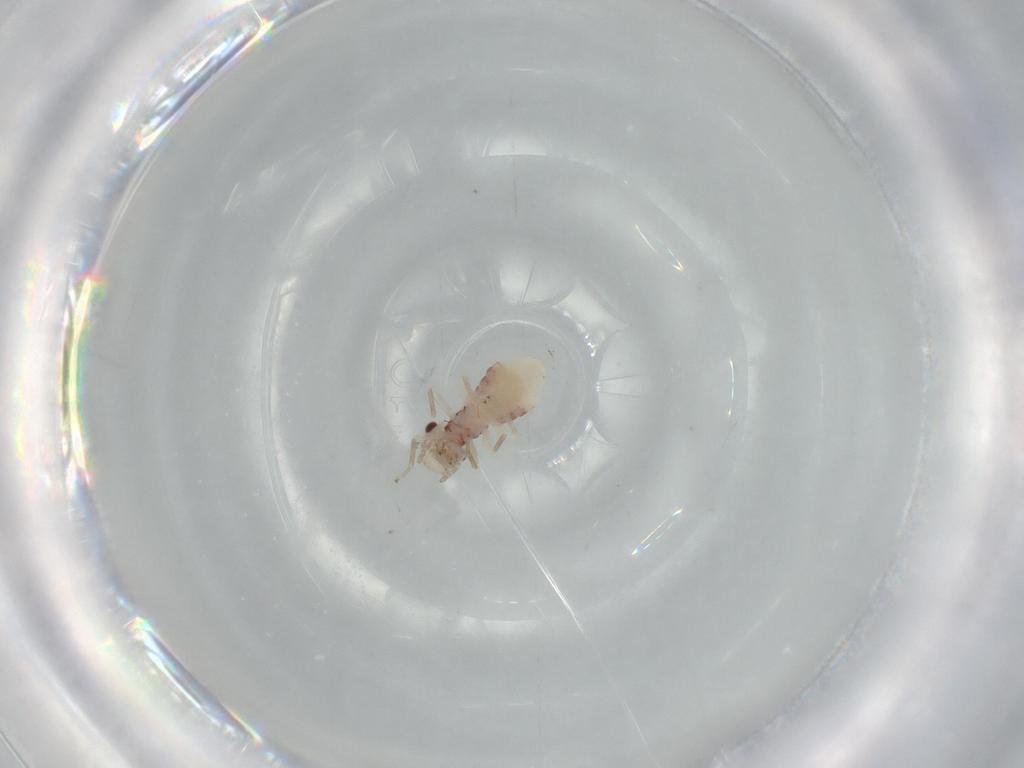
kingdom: Animalia
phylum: Arthropoda
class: Insecta
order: Psocodea
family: Caeciliusidae
